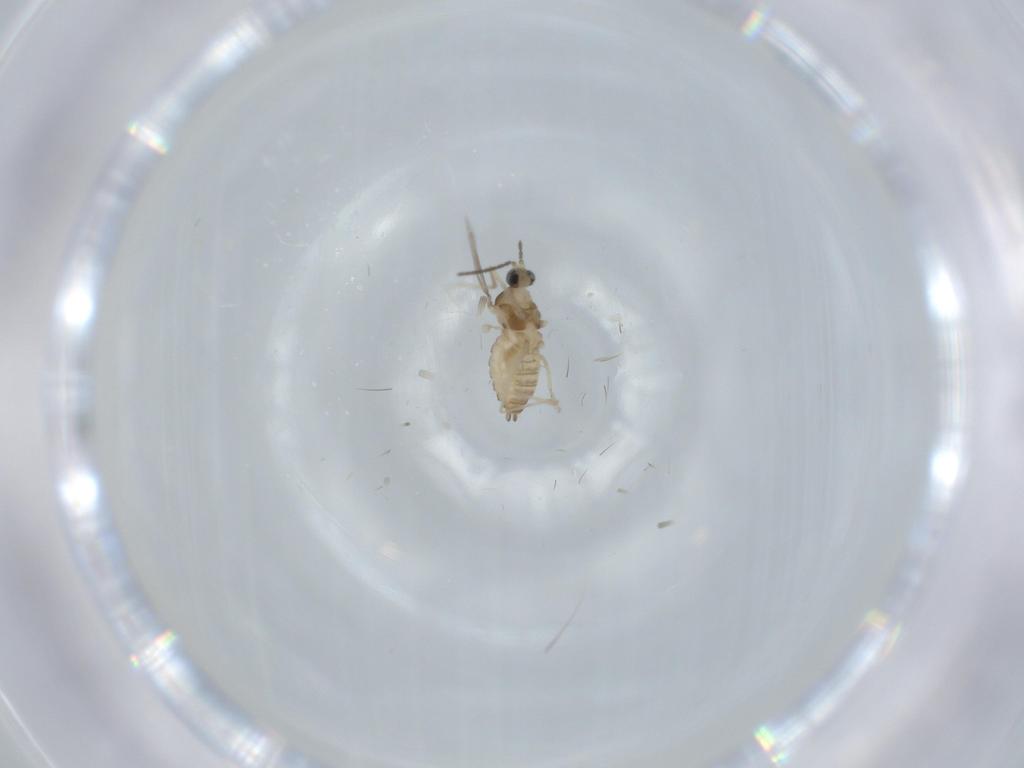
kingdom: Animalia
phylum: Arthropoda
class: Insecta
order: Diptera
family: Cecidomyiidae
